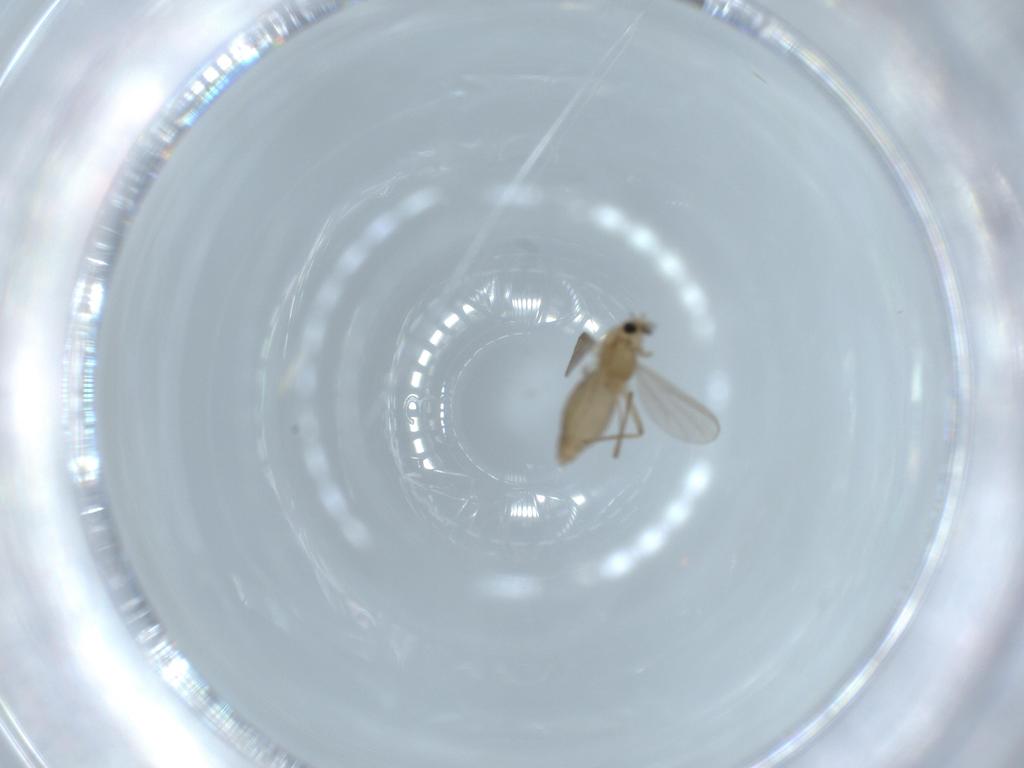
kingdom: Animalia
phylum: Arthropoda
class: Insecta
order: Diptera
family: Chironomidae
